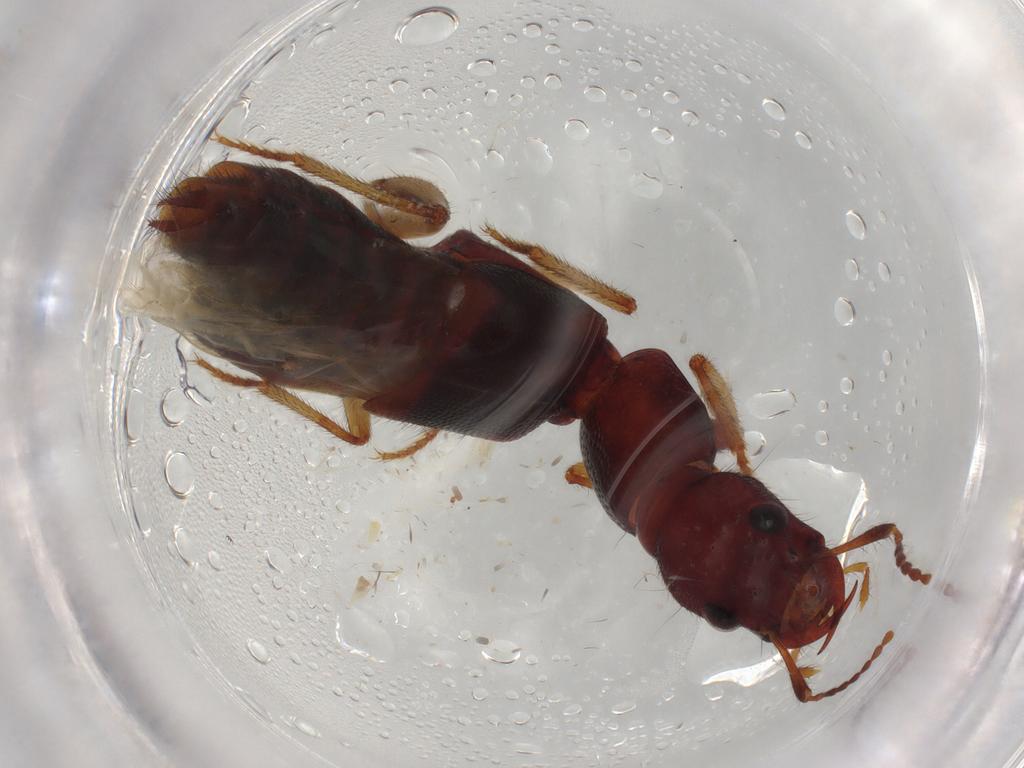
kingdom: Animalia
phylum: Arthropoda
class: Insecta
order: Coleoptera
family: Staphylinidae
